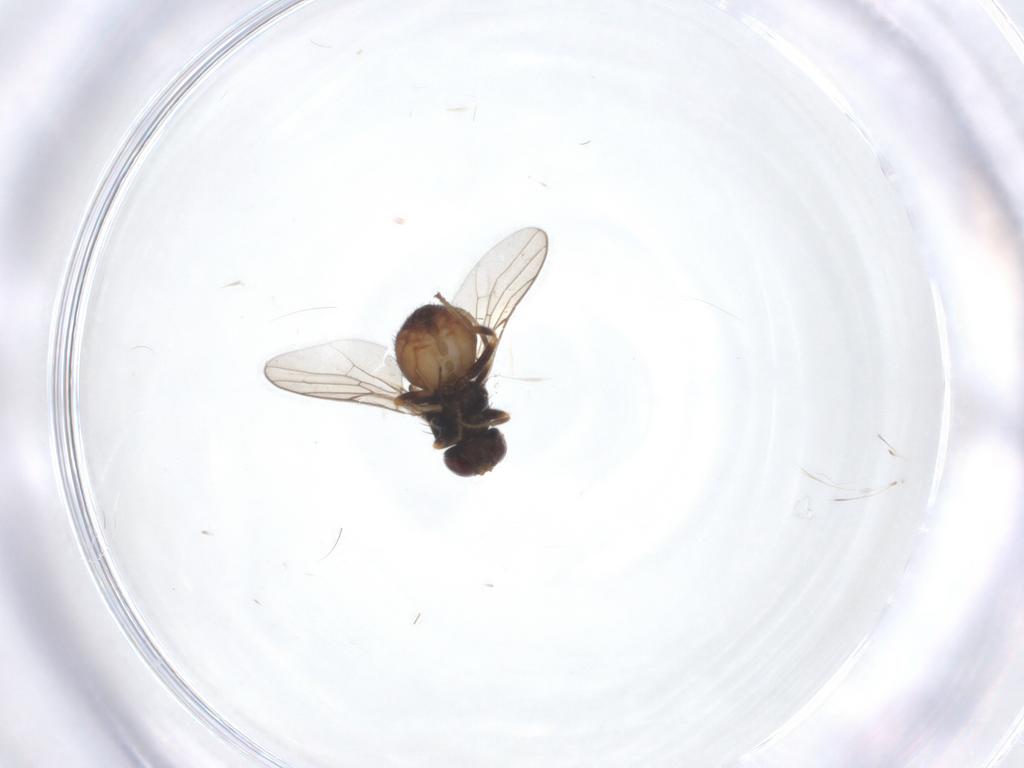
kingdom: Animalia
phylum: Arthropoda
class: Insecta
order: Diptera
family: Chloropidae
